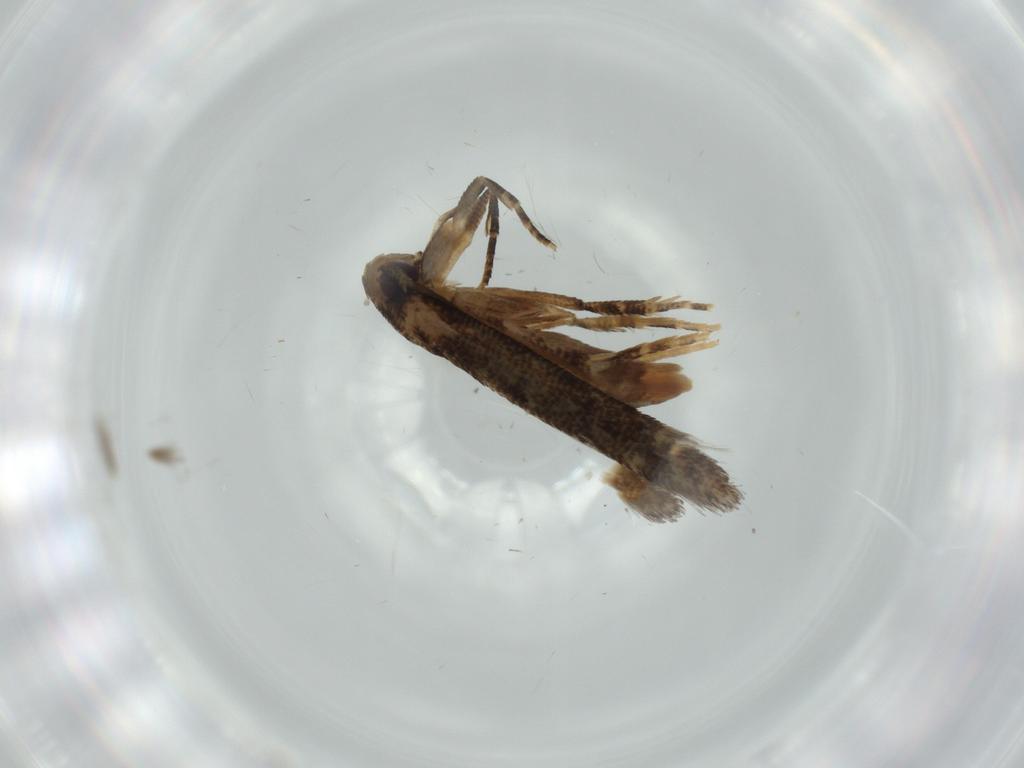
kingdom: Animalia
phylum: Arthropoda
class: Insecta
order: Lepidoptera
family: Cosmopterigidae
